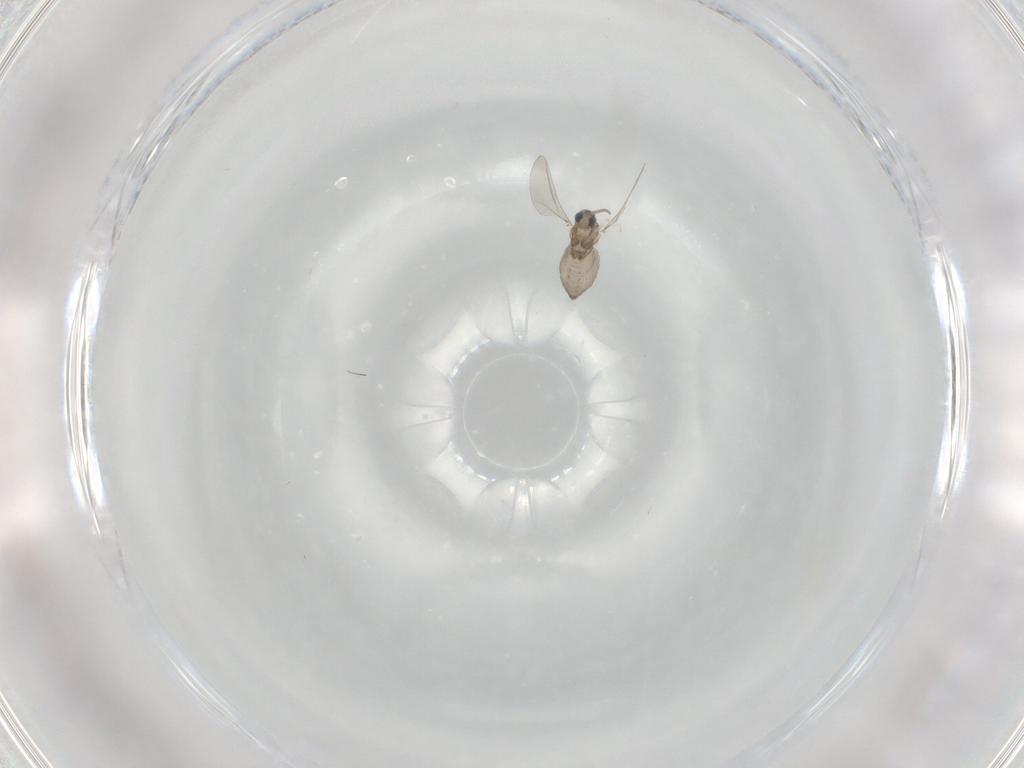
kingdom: Animalia
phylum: Arthropoda
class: Insecta
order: Diptera
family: Cecidomyiidae
